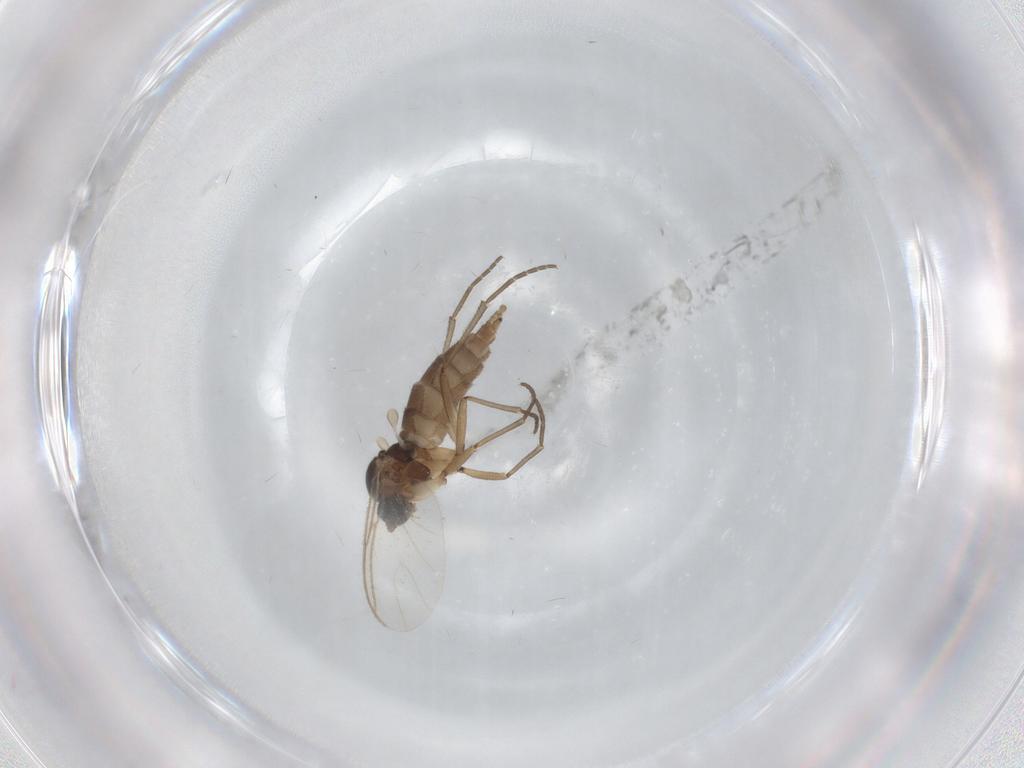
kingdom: Animalia
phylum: Arthropoda
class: Insecta
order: Diptera
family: Sciaridae
